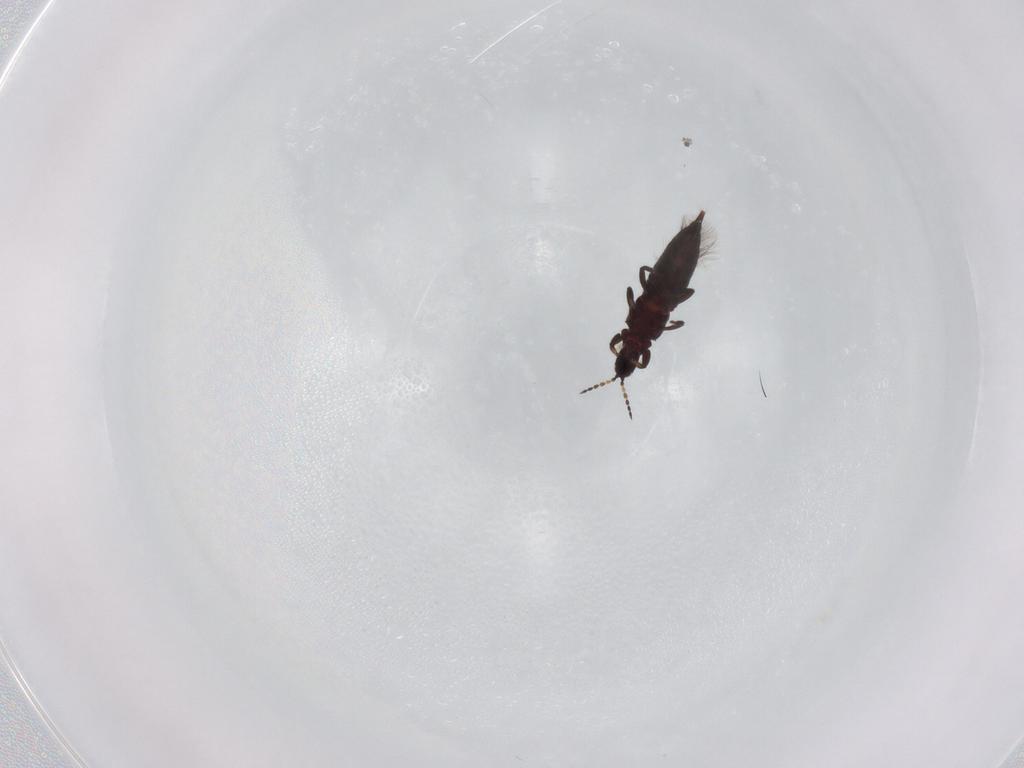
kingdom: Animalia
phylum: Arthropoda
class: Insecta
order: Thysanoptera
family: Phlaeothripidae
